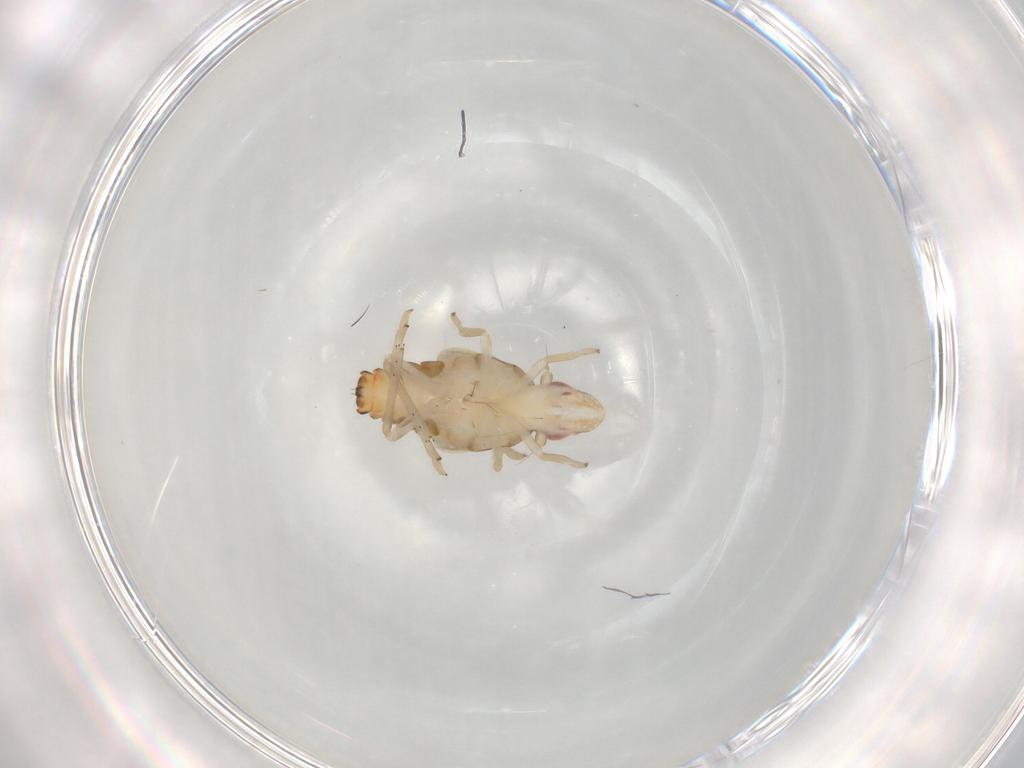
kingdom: Animalia
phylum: Arthropoda
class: Insecta
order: Hemiptera
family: Tropiduchidae
